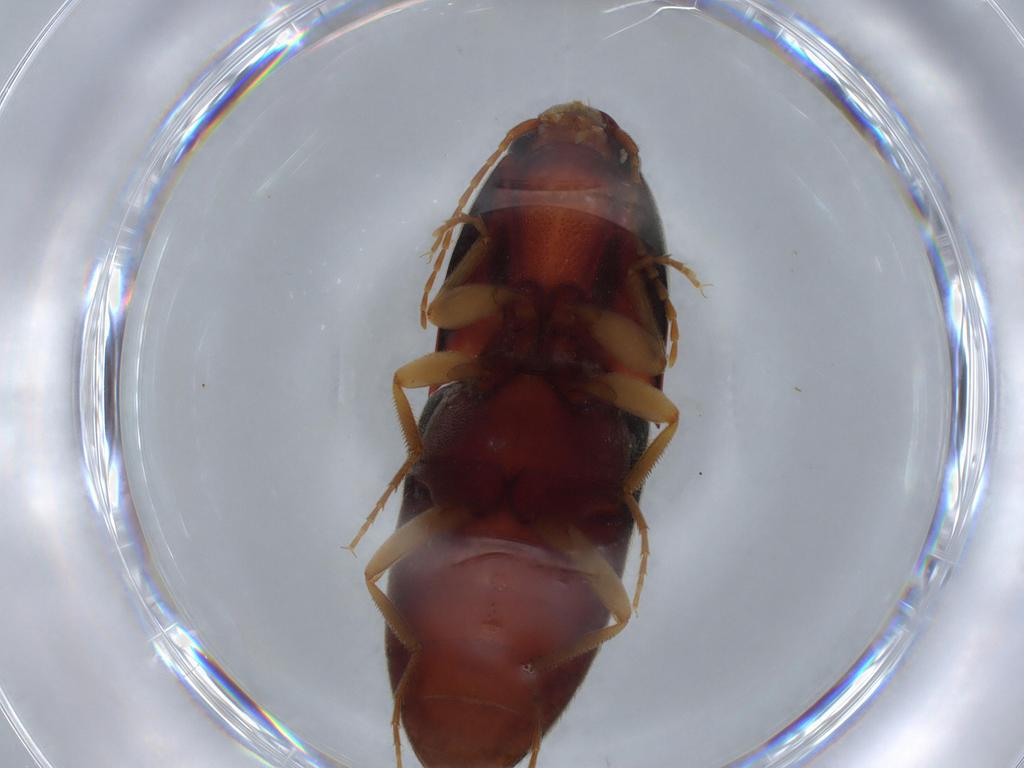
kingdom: Animalia
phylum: Arthropoda
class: Insecta
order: Coleoptera
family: Elateridae
